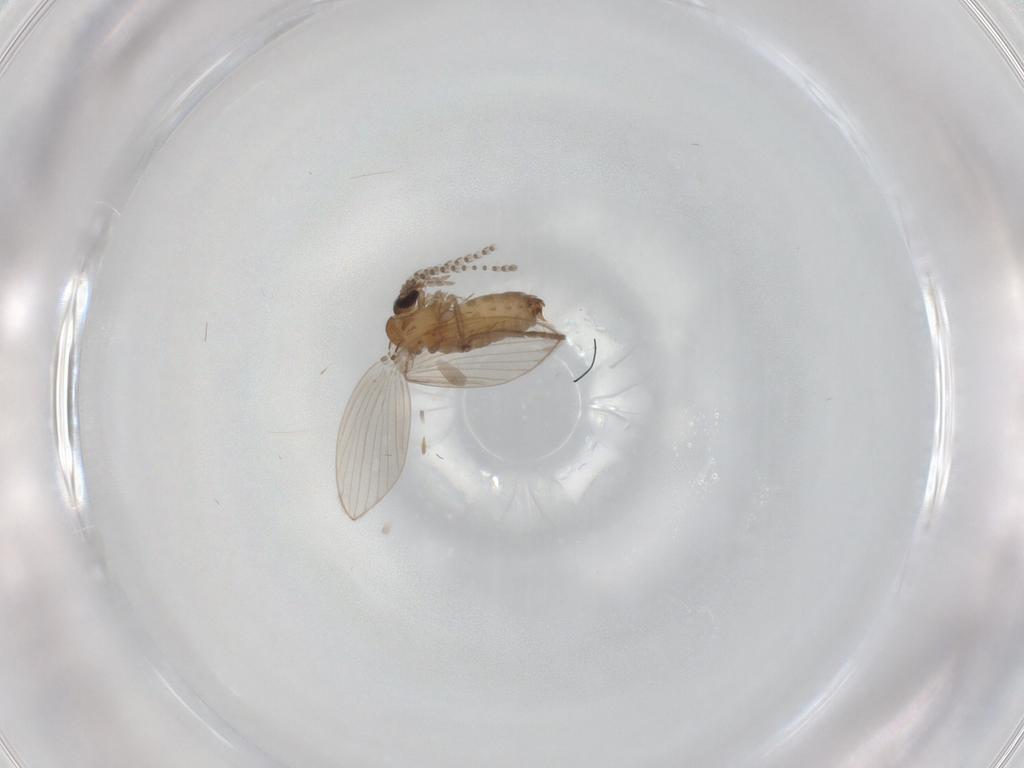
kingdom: Animalia
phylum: Arthropoda
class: Insecta
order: Diptera
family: Psychodidae
